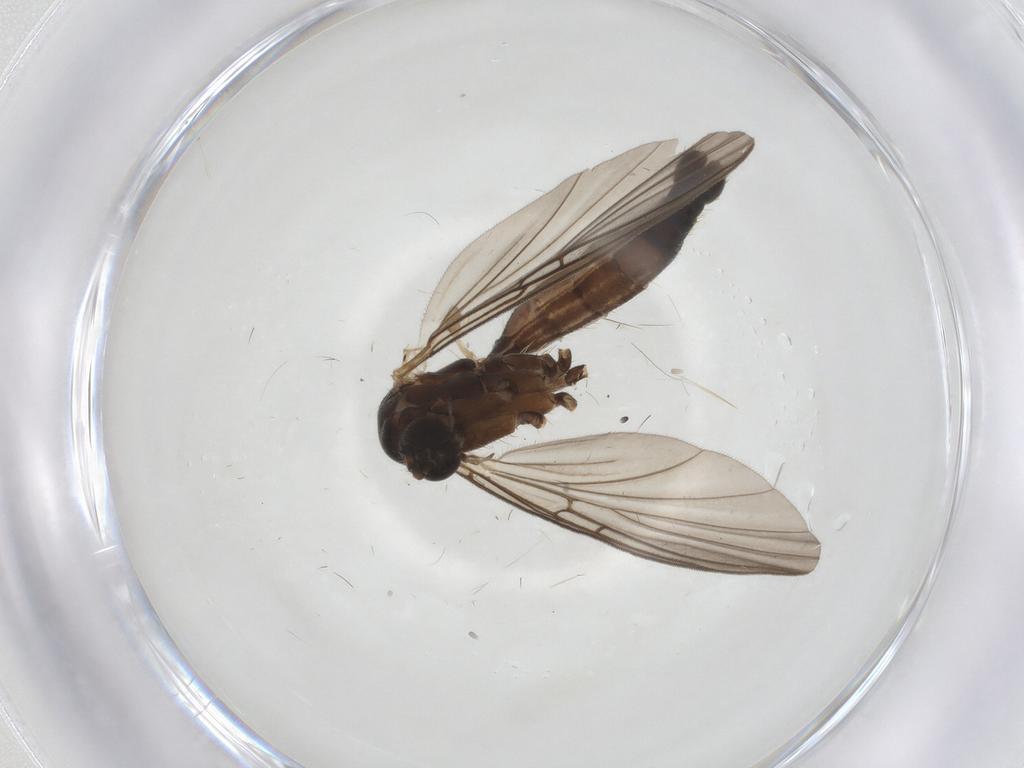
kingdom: Animalia
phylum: Arthropoda
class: Insecta
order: Diptera
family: Mycetophilidae
